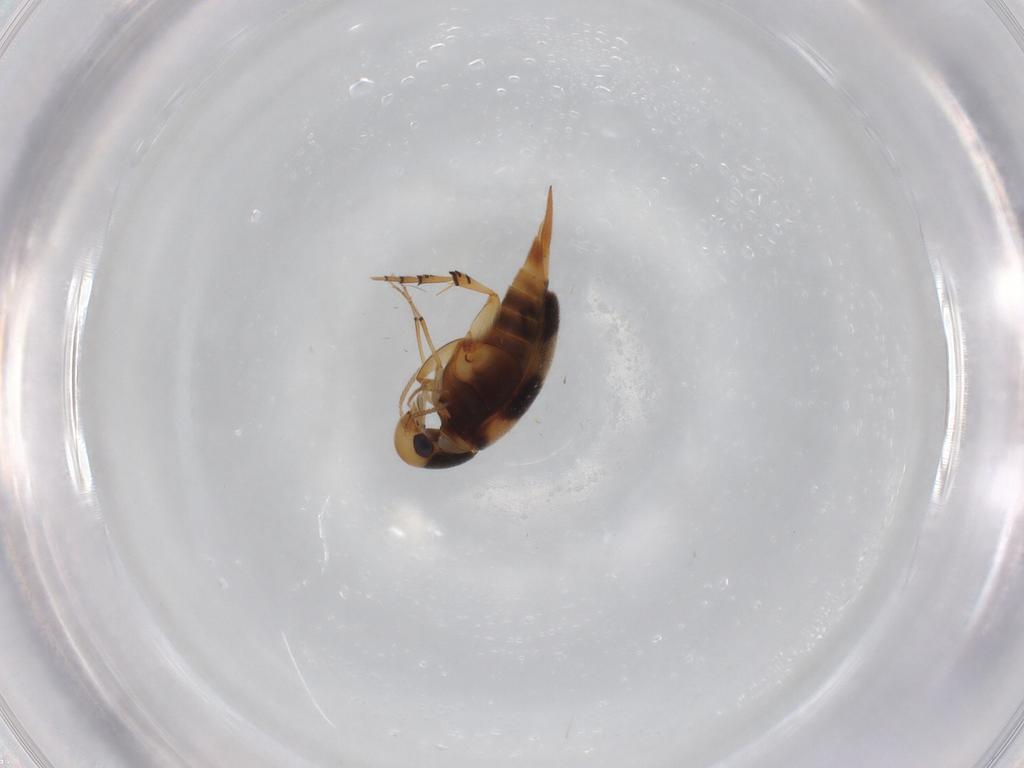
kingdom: Animalia
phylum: Arthropoda
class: Insecta
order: Coleoptera
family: Mordellidae
